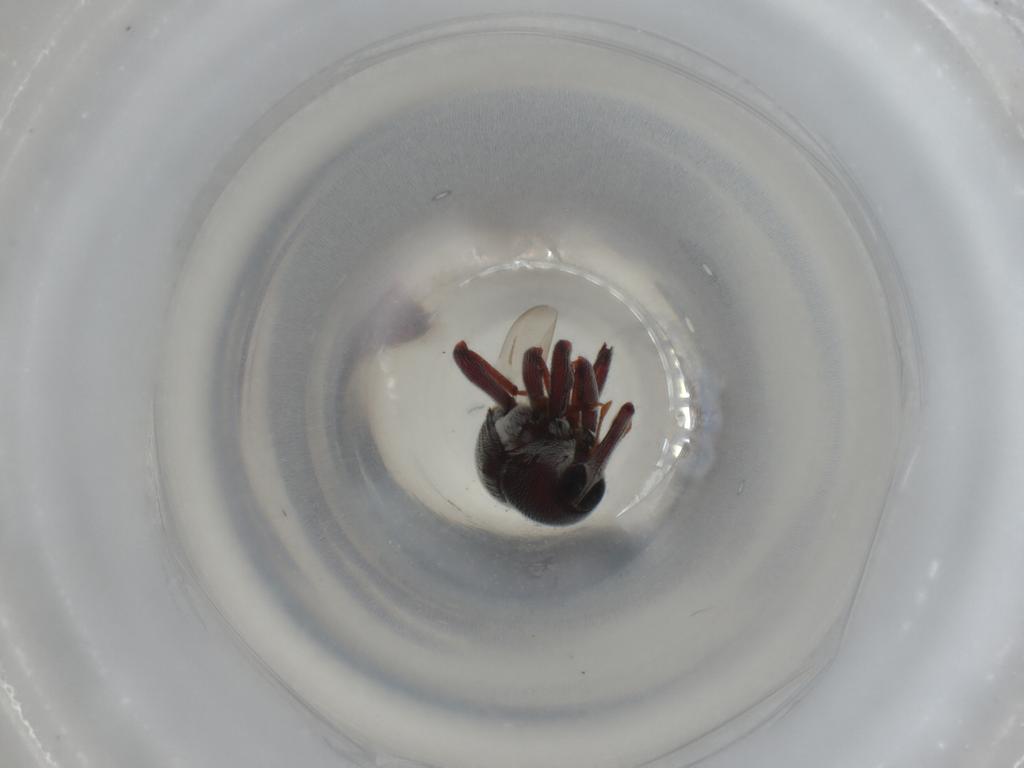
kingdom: Animalia
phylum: Arthropoda
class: Insecta
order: Coleoptera
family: Curculionidae
